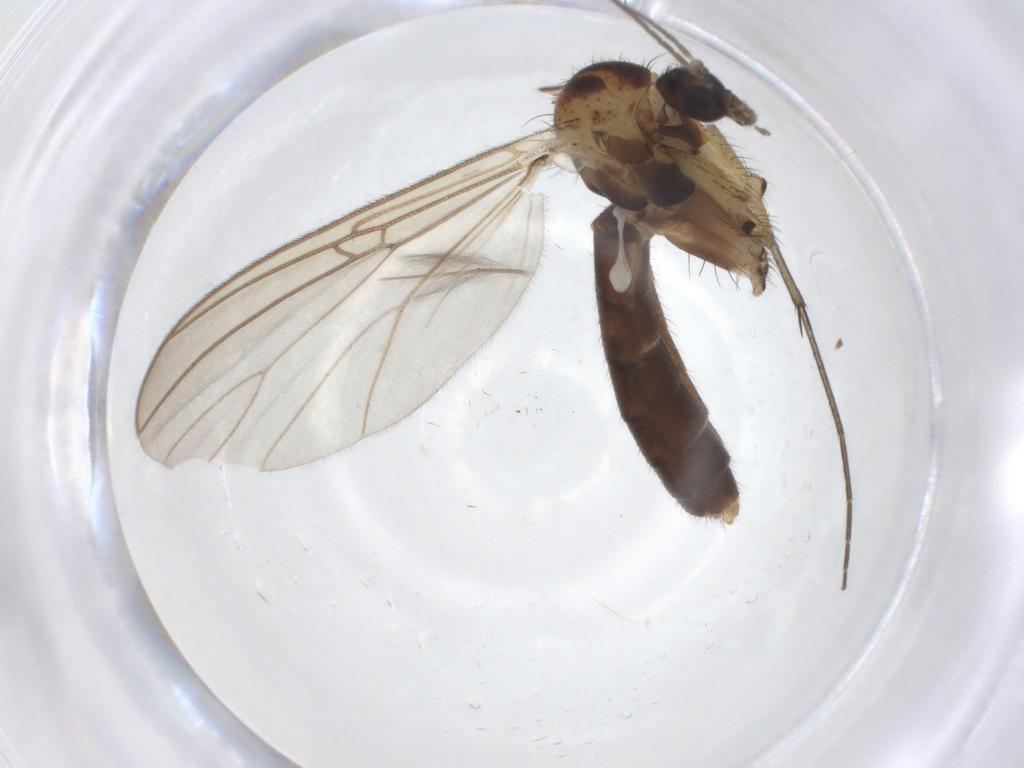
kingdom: Animalia
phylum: Arthropoda
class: Insecta
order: Diptera
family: Mycetophilidae
